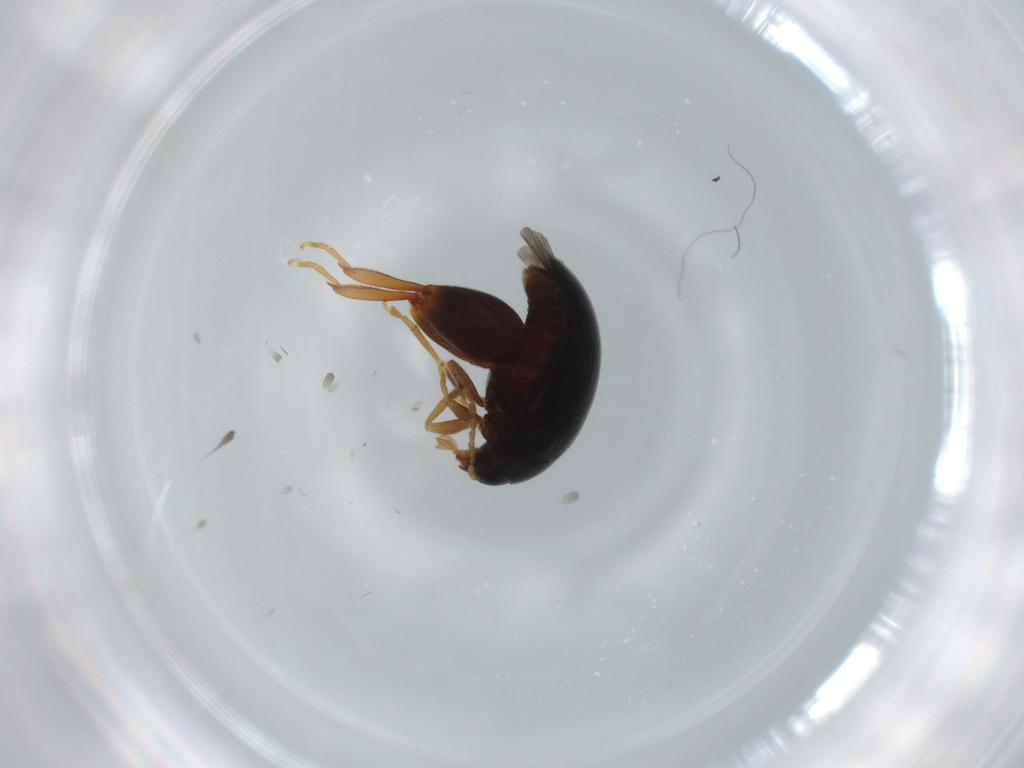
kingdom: Animalia
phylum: Arthropoda
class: Insecta
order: Coleoptera
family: Chrysomelidae
